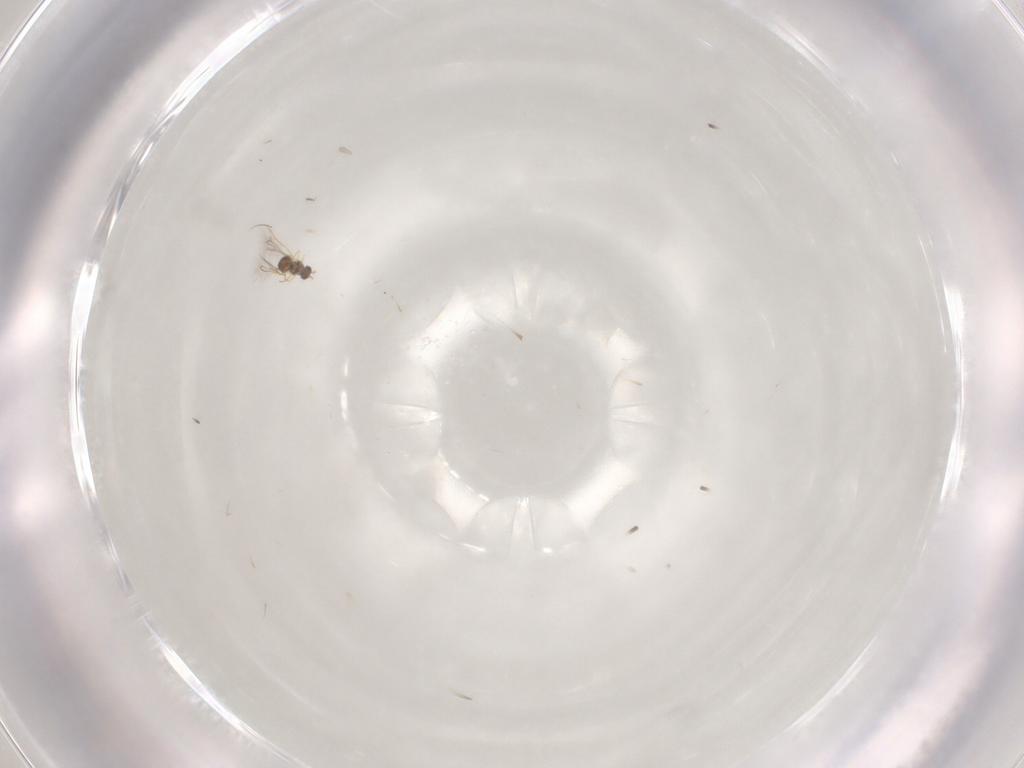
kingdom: Animalia
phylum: Arthropoda
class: Insecta
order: Hymenoptera
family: Mymaridae
